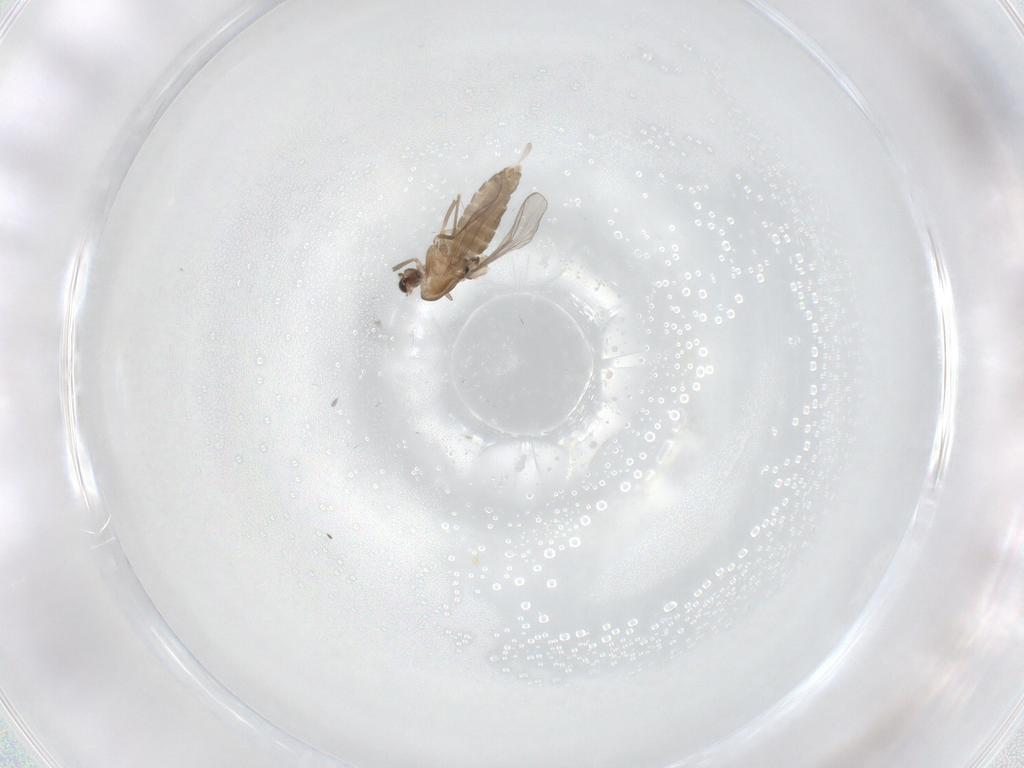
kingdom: Animalia
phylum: Arthropoda
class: Insecta
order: Diptera
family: Cecidomyiidae
